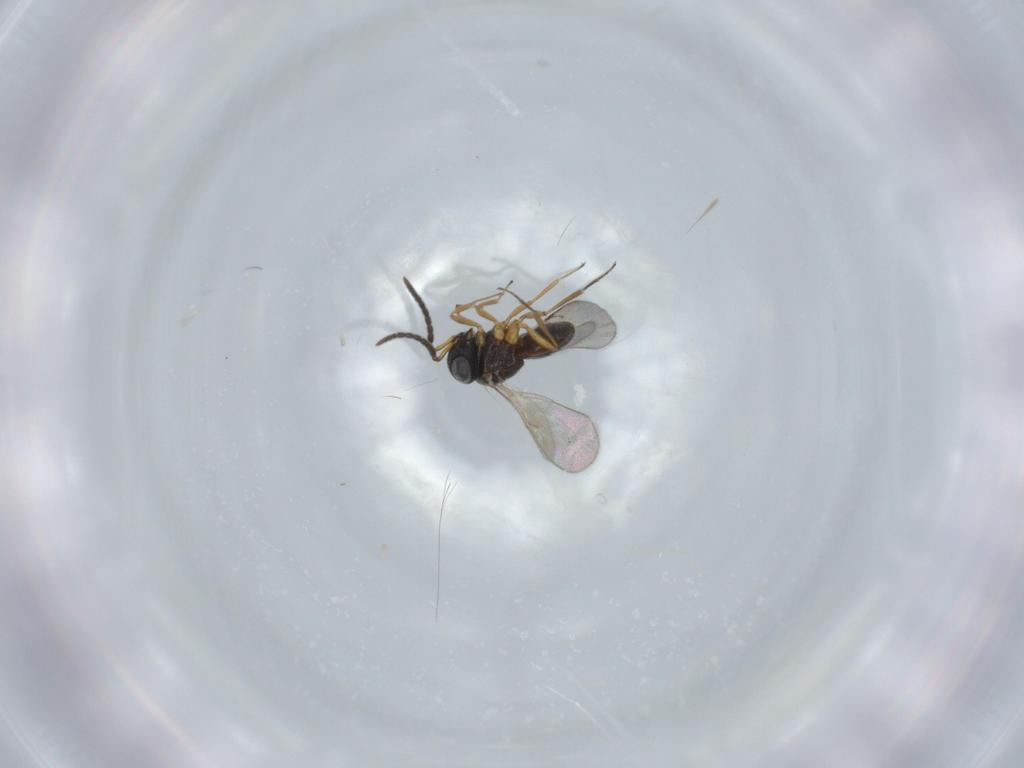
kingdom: Animalia
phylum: Arthropoda
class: Insecta
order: Hymenoptera
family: Scelionidae
